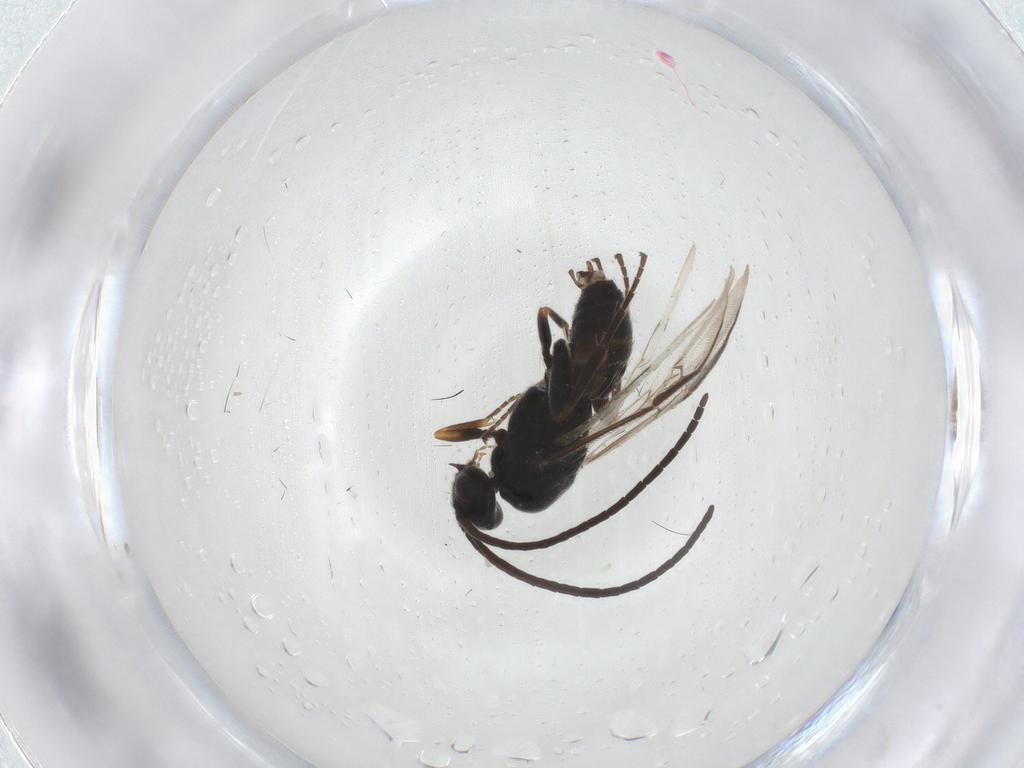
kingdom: Animalia
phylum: Arthropoda
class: Insecta
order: Hymenoptera
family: Braconidae
